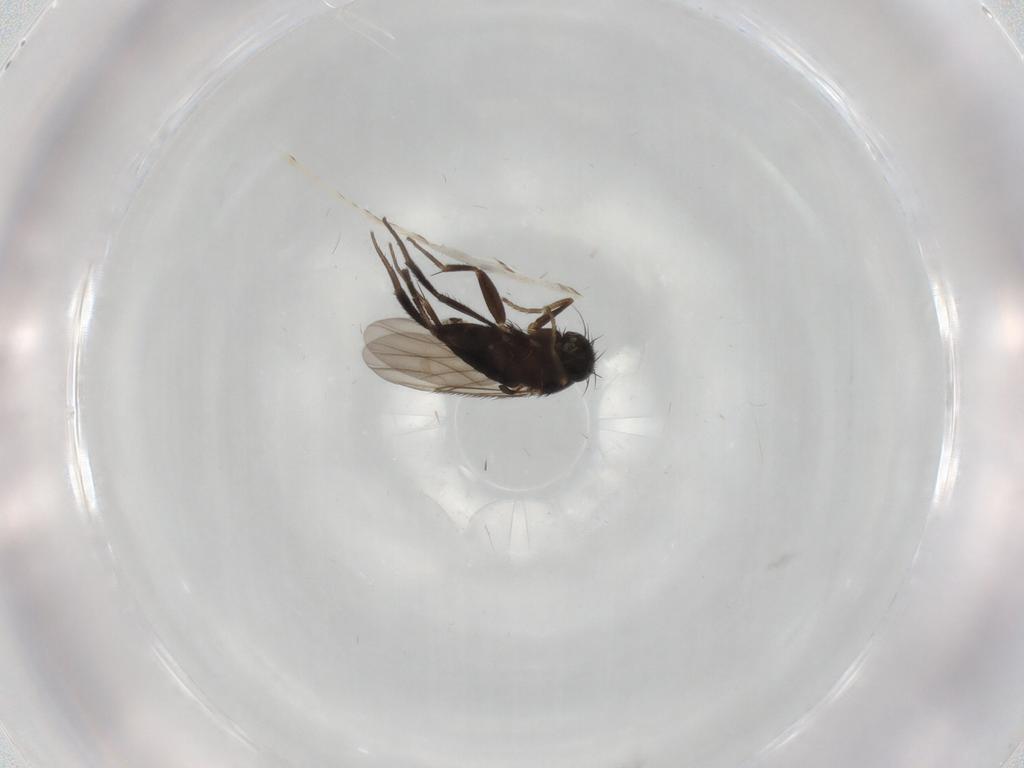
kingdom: Animalia
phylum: Arthropoda
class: Insecta
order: Diptera
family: Phoridae
